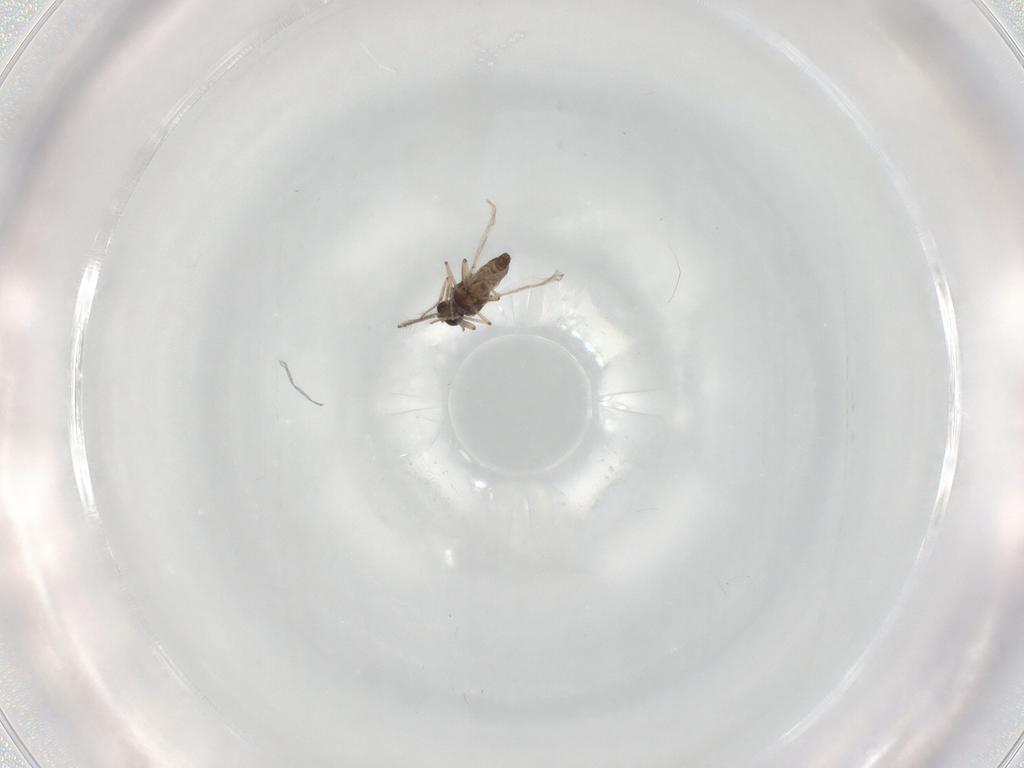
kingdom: Animalia
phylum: Arthropoda
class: Insecta
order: Diptera
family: Ceratopogonidae
